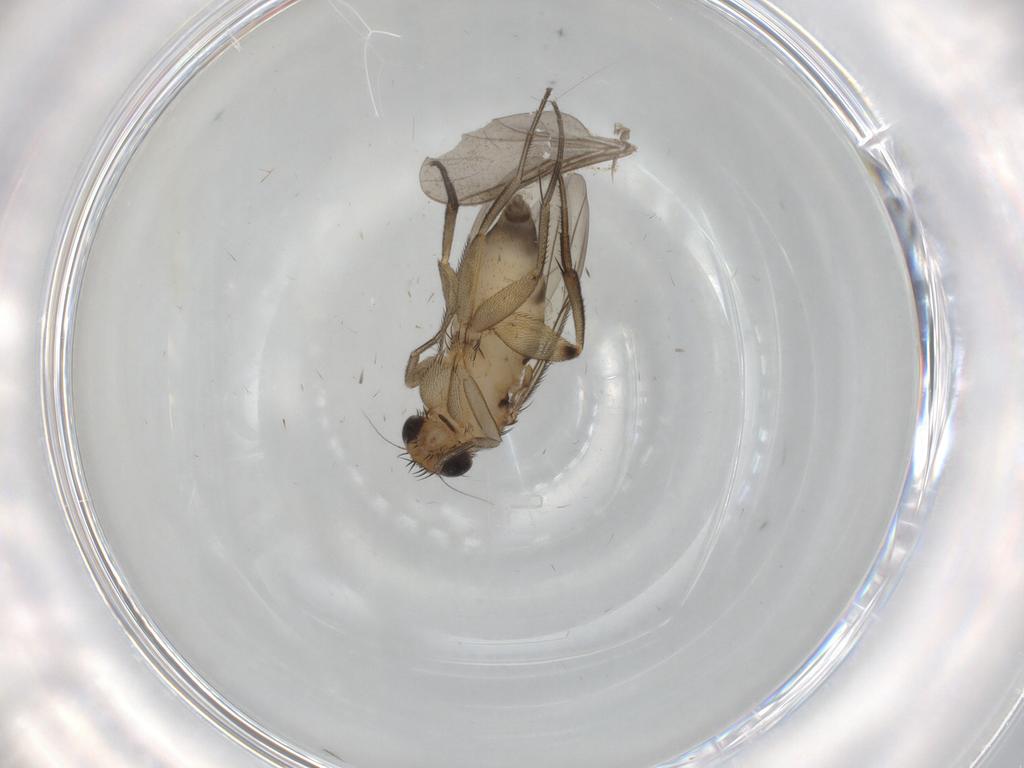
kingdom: Animalia
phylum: Arthropoda
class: Insecta
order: Diptera
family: Phoridae
